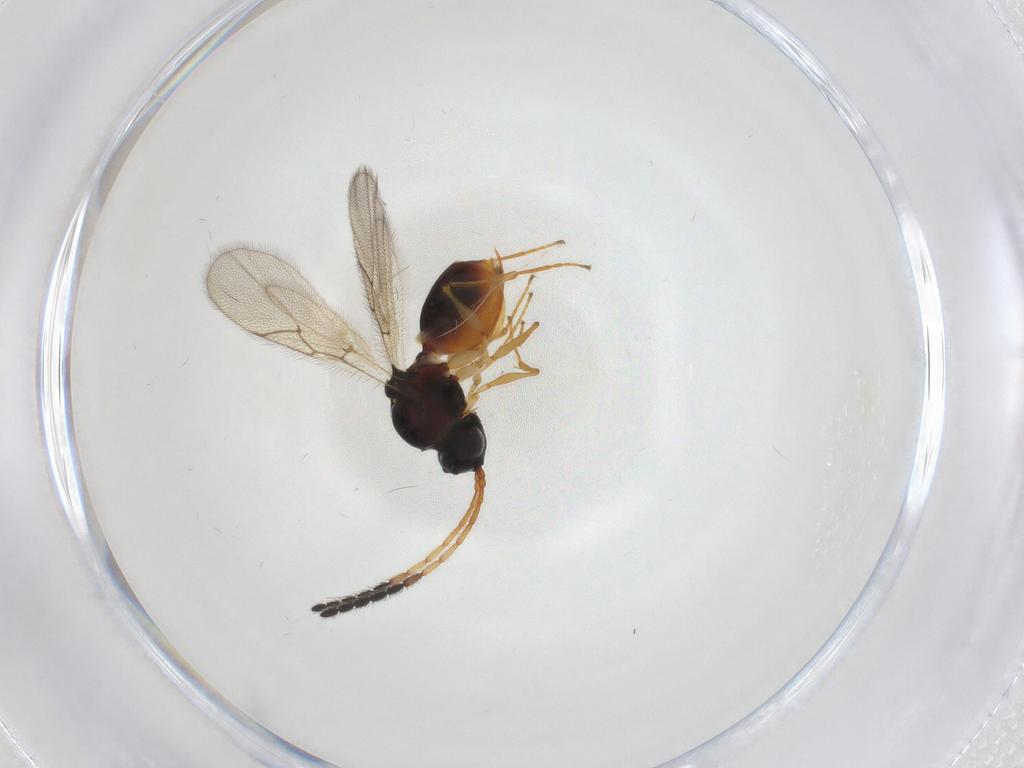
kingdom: Animalia
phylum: Arthropoda
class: Insecta
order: Hymenoptera
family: Figitidae
